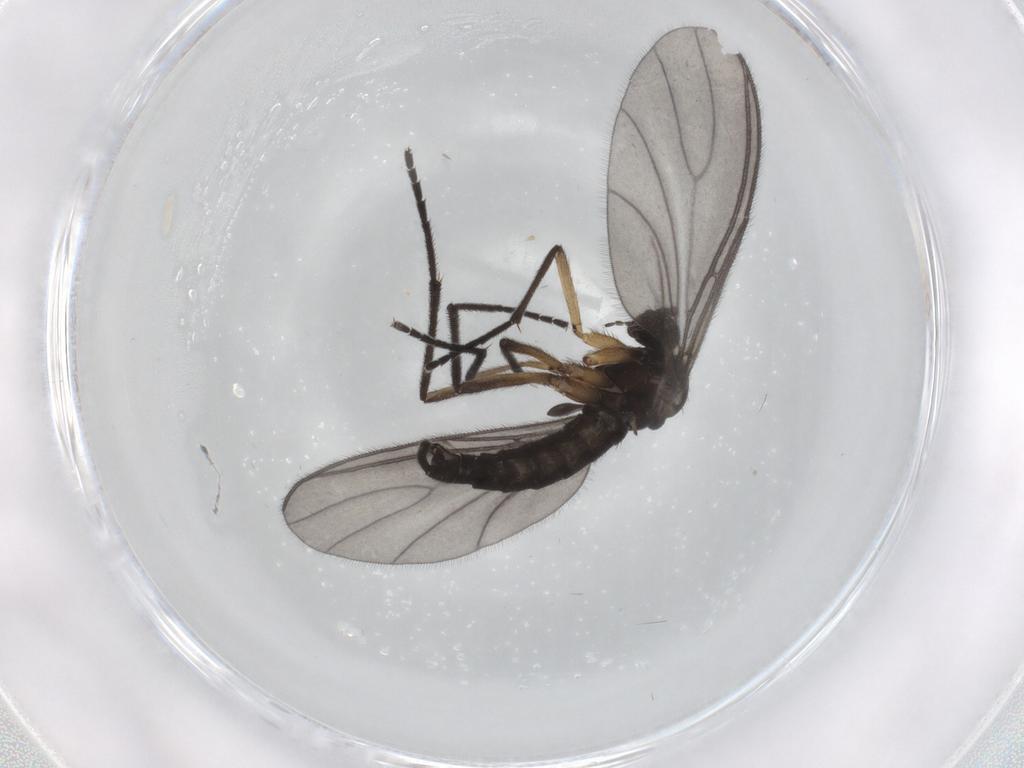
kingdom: Animalia
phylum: Arthropoda
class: Insecta
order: Diptera
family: Sciaridae
